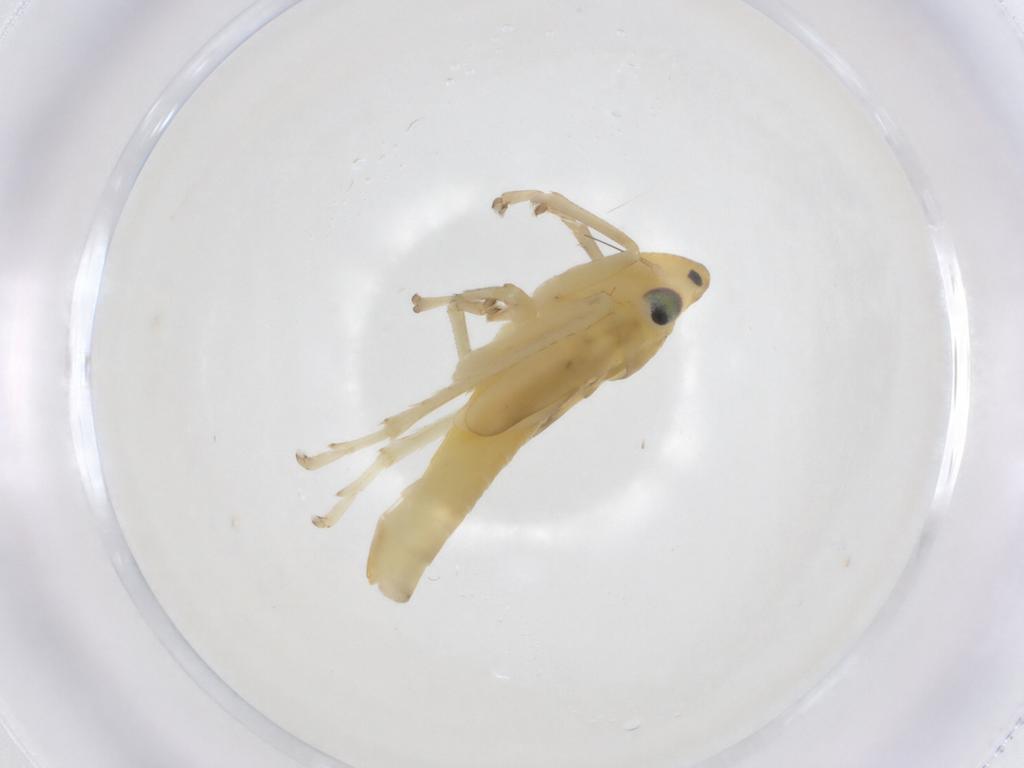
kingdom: Animalia
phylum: Arthropoda
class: Insecta
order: Hemiptera
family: Cicadellidae
